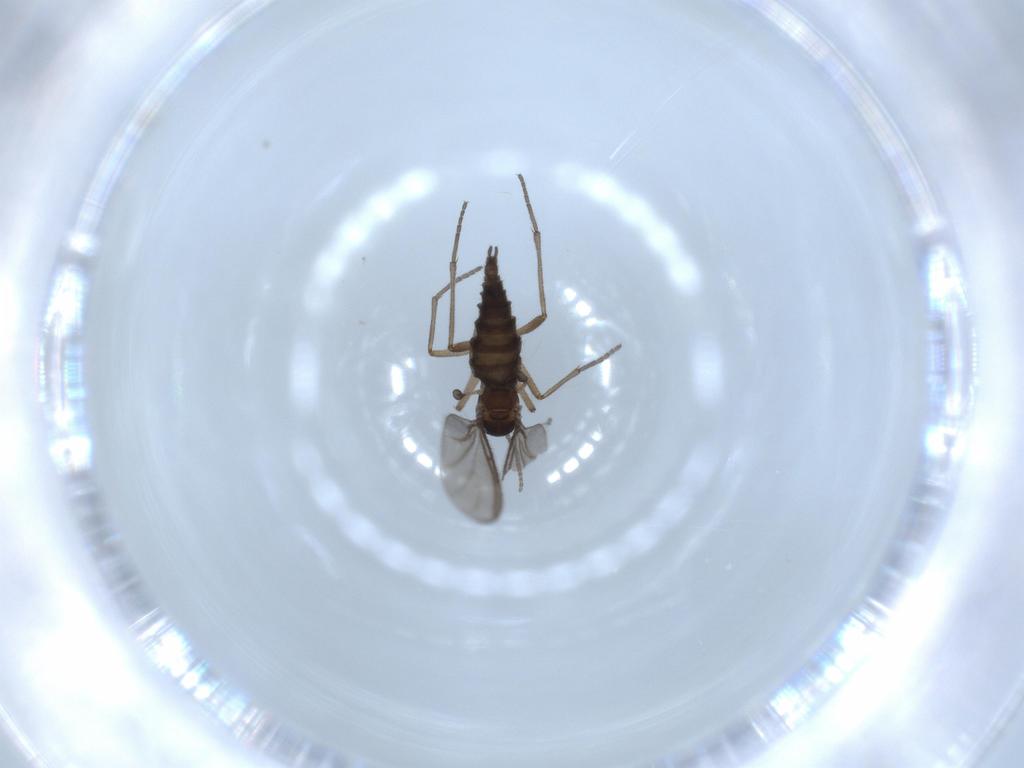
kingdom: Animalia
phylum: Arthropoda
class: Insecta
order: Diptera
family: Sciaridae
